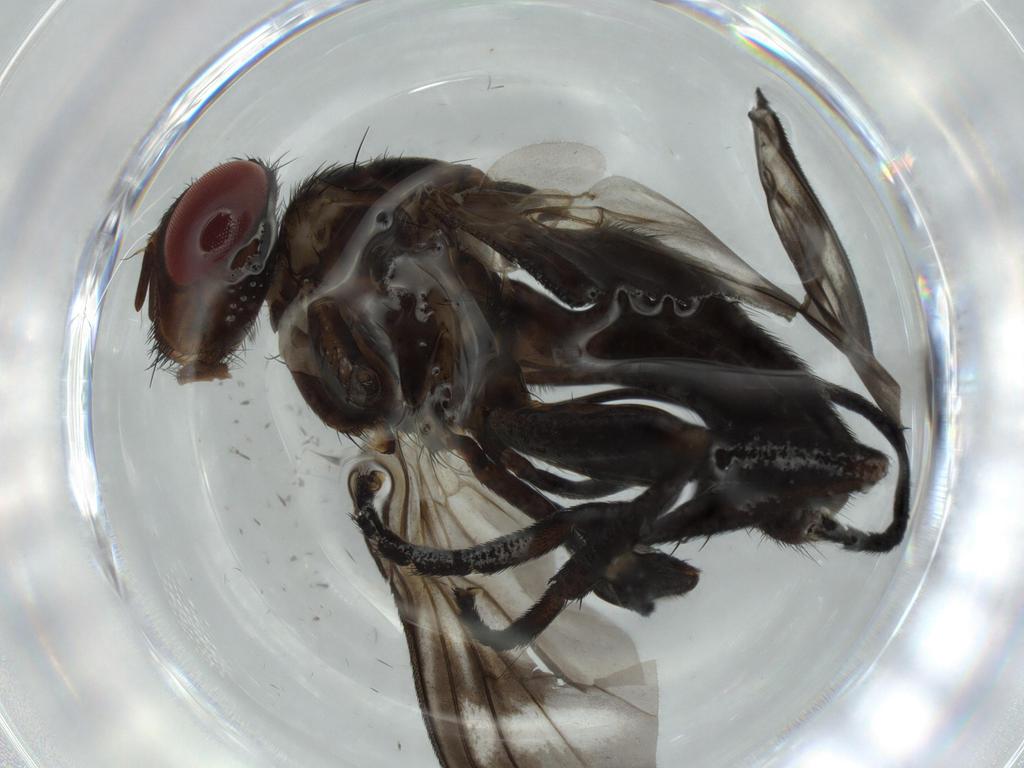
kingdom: Animalia
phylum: Arthropoda
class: Insecta
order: Diptera
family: Calliphoridae
